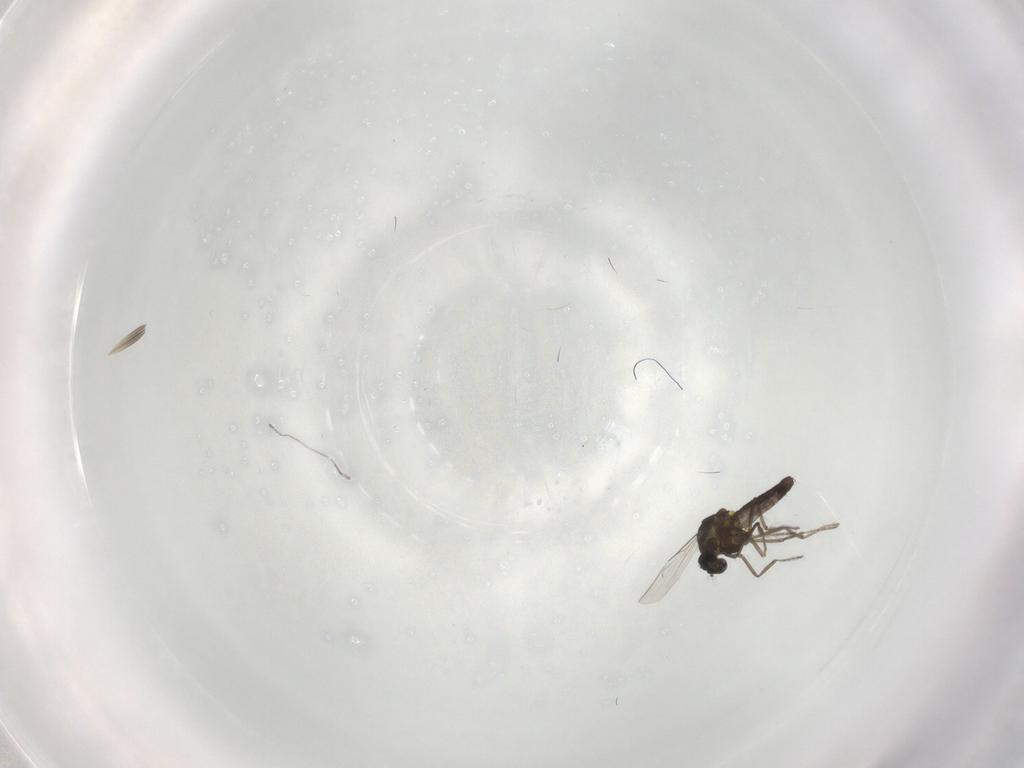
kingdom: Animalia
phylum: Arthropoda
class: Insecta
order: Diptera
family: Ceratopogonidae
